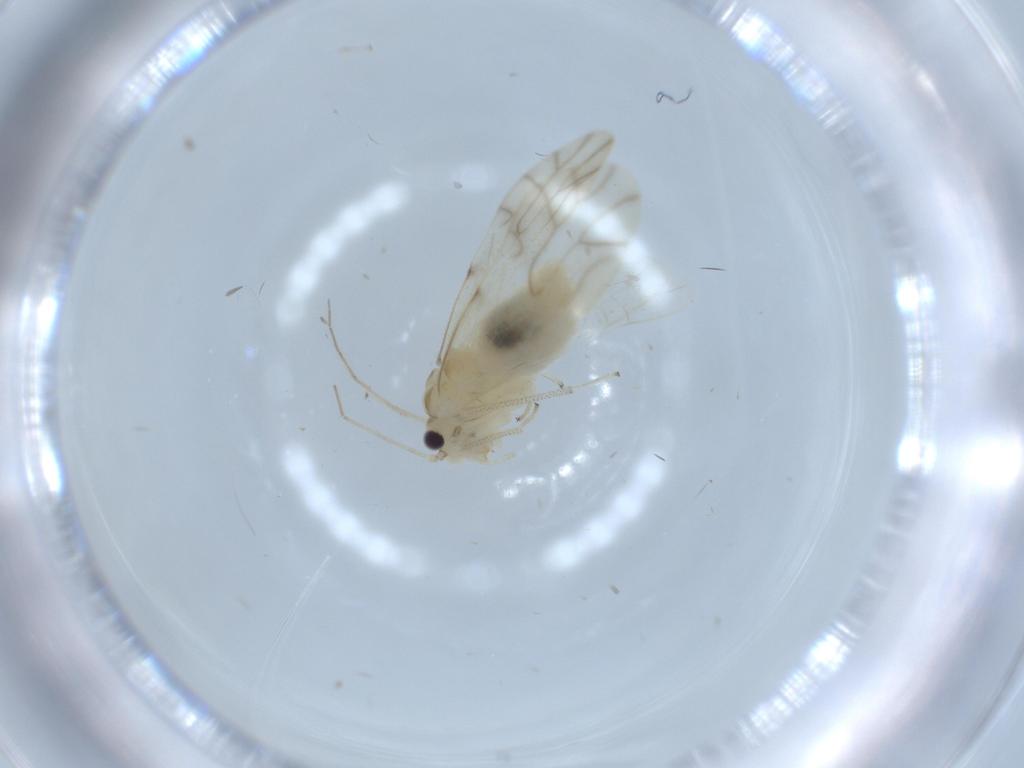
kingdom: Animalia
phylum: Arthropoda
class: Insecta
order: Psocodea
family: Caeciliusidae
